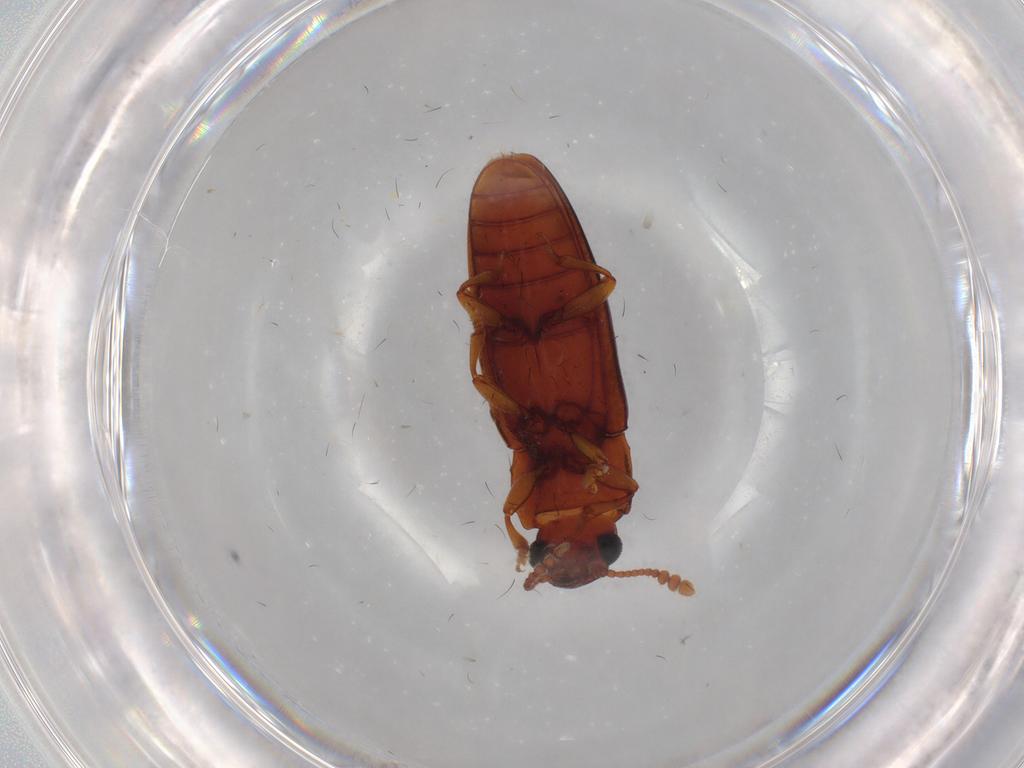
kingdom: Animalia
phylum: Arthropoda
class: Insecta
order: Coleoptera
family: Erotylidae
